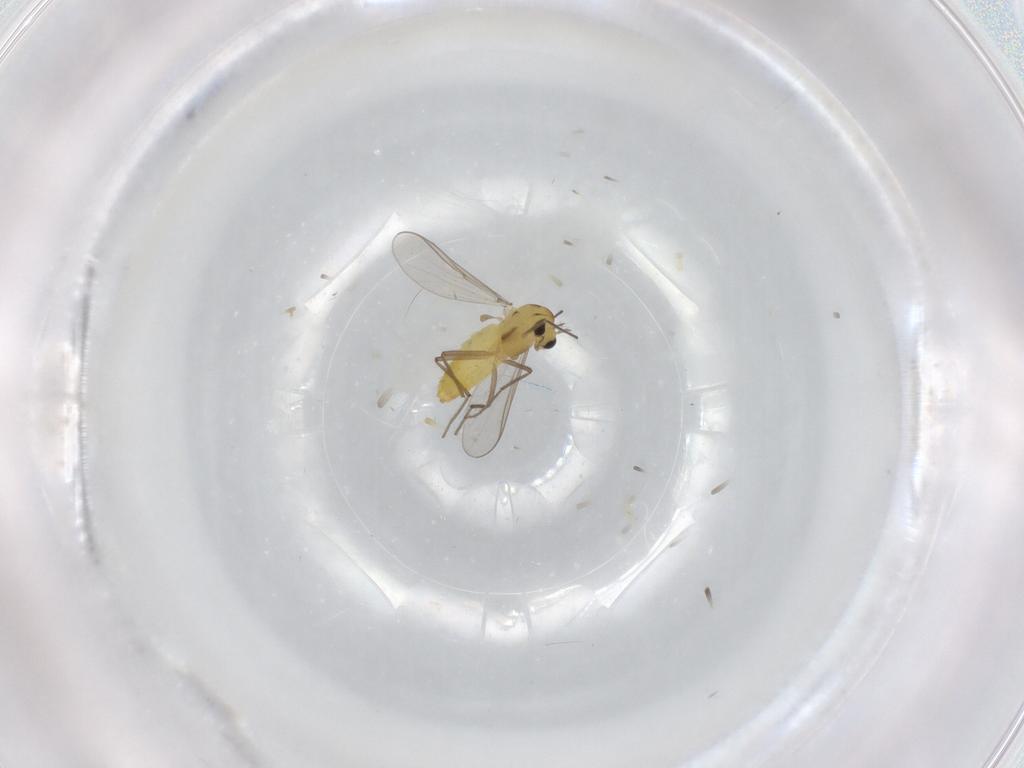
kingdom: Animalia
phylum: Arthropoda
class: Insecta
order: Diptera
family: Chironomidae
